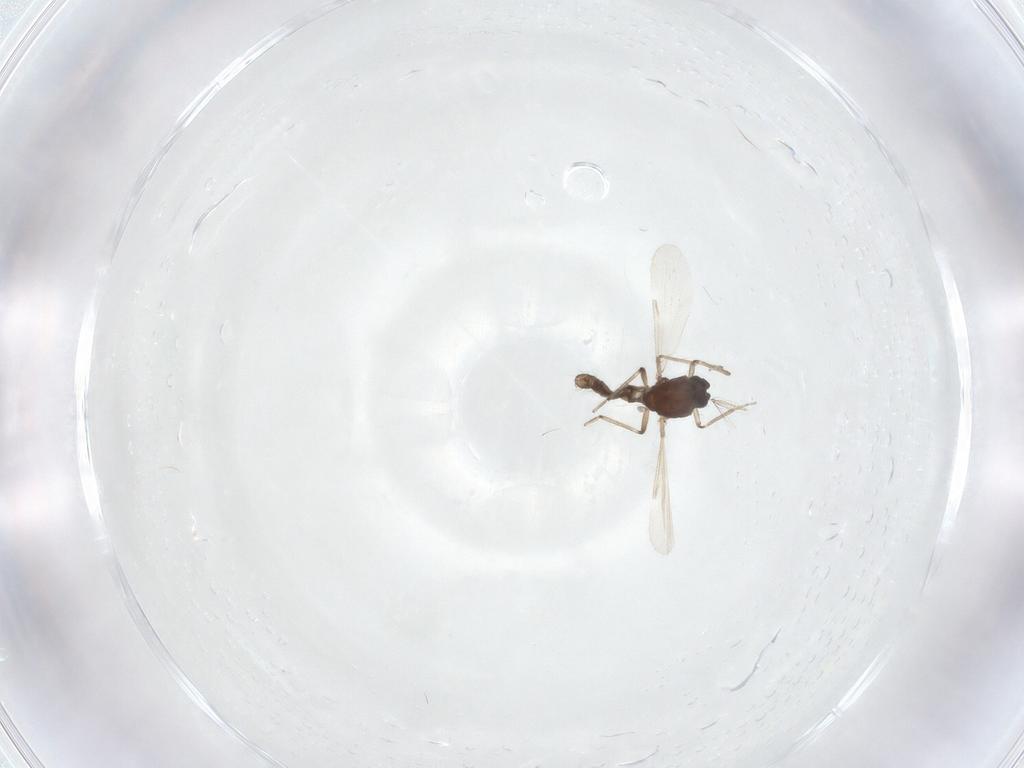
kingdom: Animalia
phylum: Arthropoda
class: Insecta
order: Diptera
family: Ceratopogonidae
